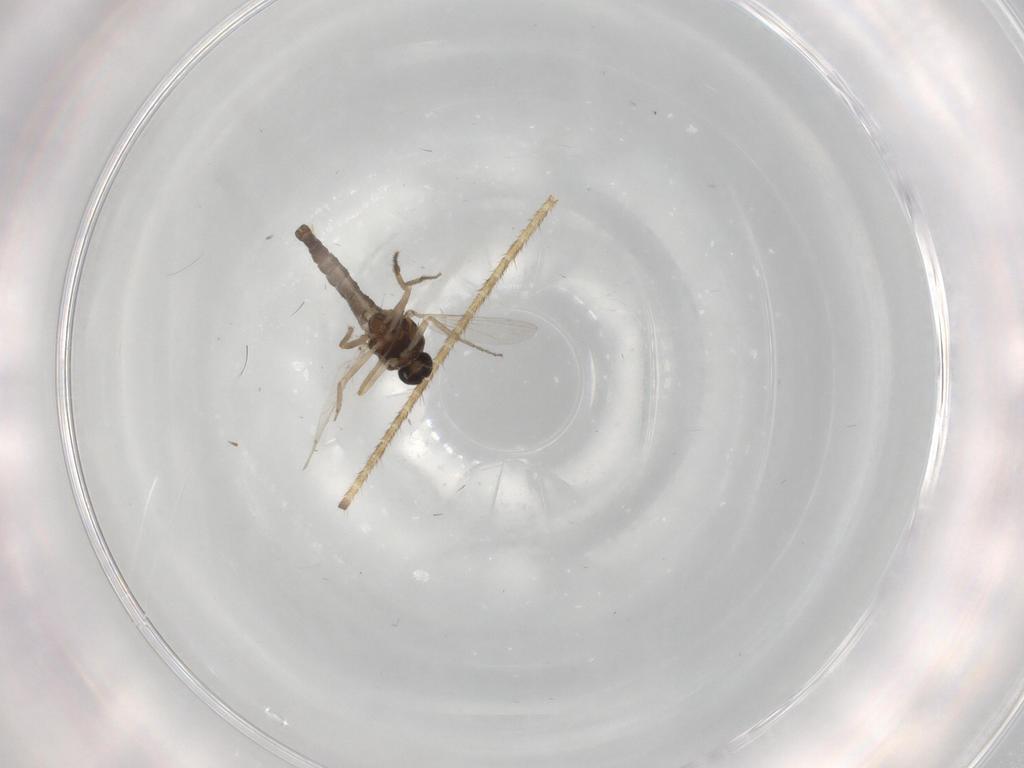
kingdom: Animalia
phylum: Arthropoda
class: Insecta
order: Diptera
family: Ceratopogonidae
